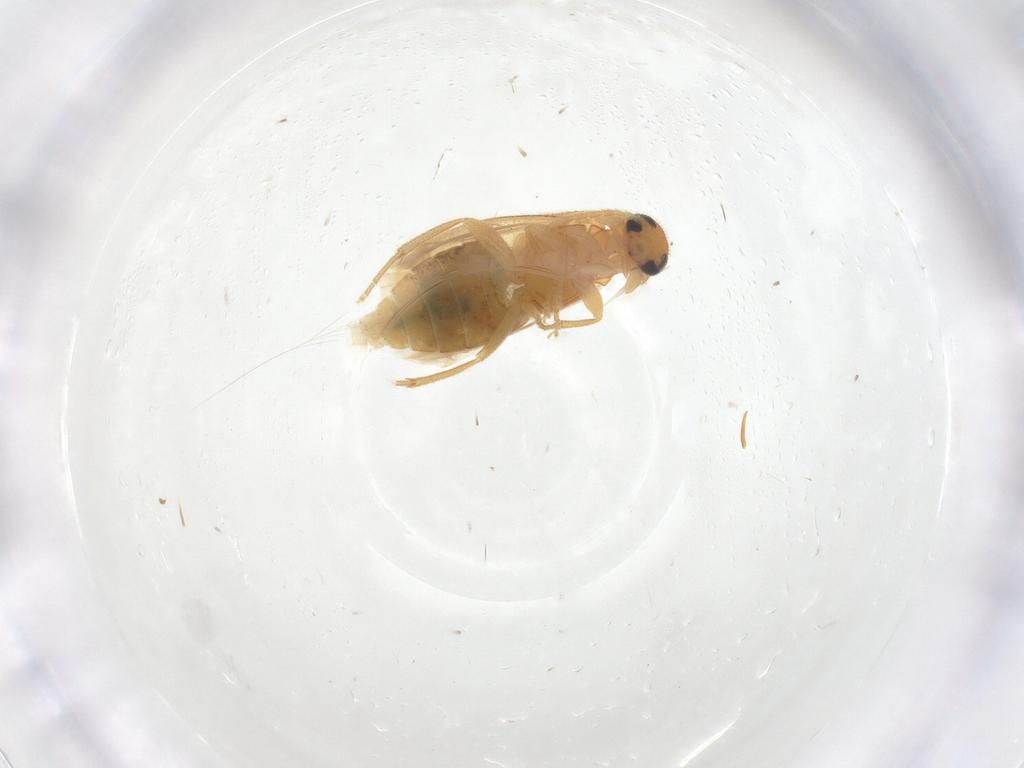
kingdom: Animalia
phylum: Arthropoda
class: Insecta
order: Coleoptera
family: Scraptiidae
